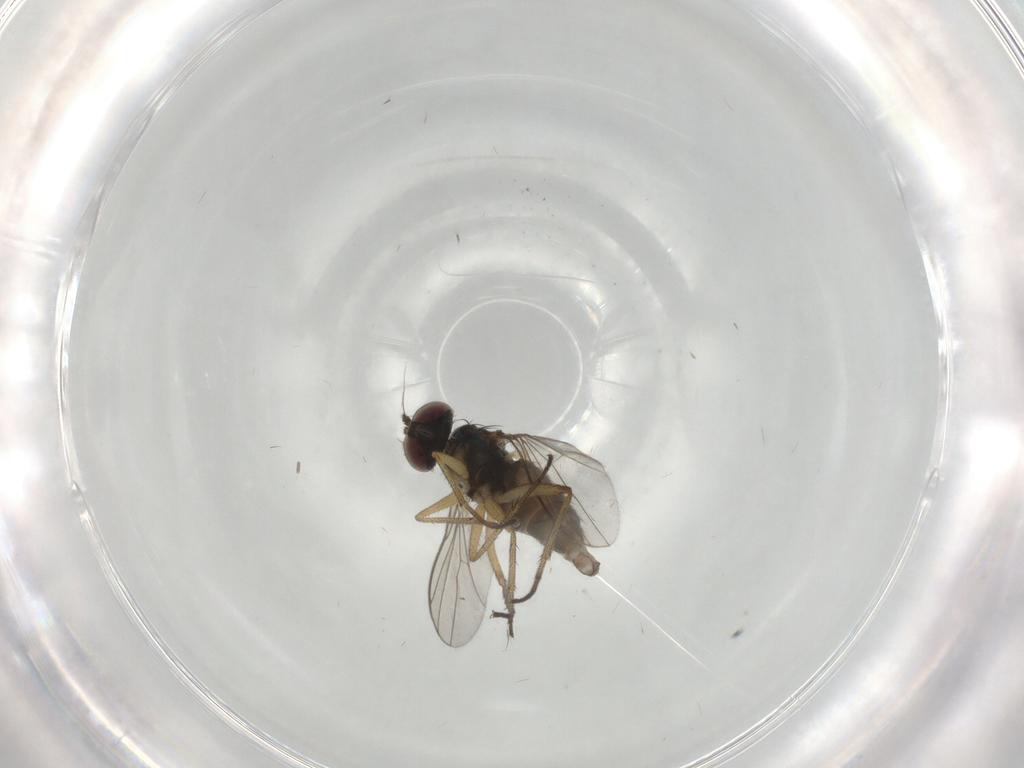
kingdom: Animalia
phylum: Arthropoda
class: Insecta
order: Diptera
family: Dolichopodidae
